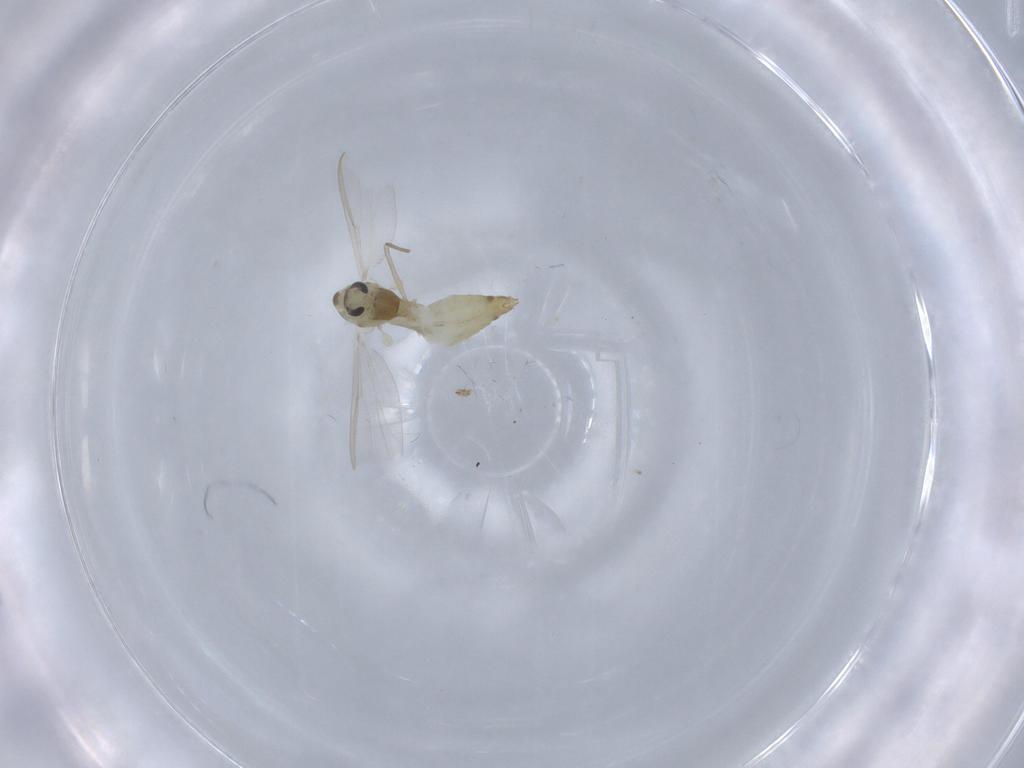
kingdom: Animalia
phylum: Arthropoda
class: Insecta
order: Diptera
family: Chironomidae
